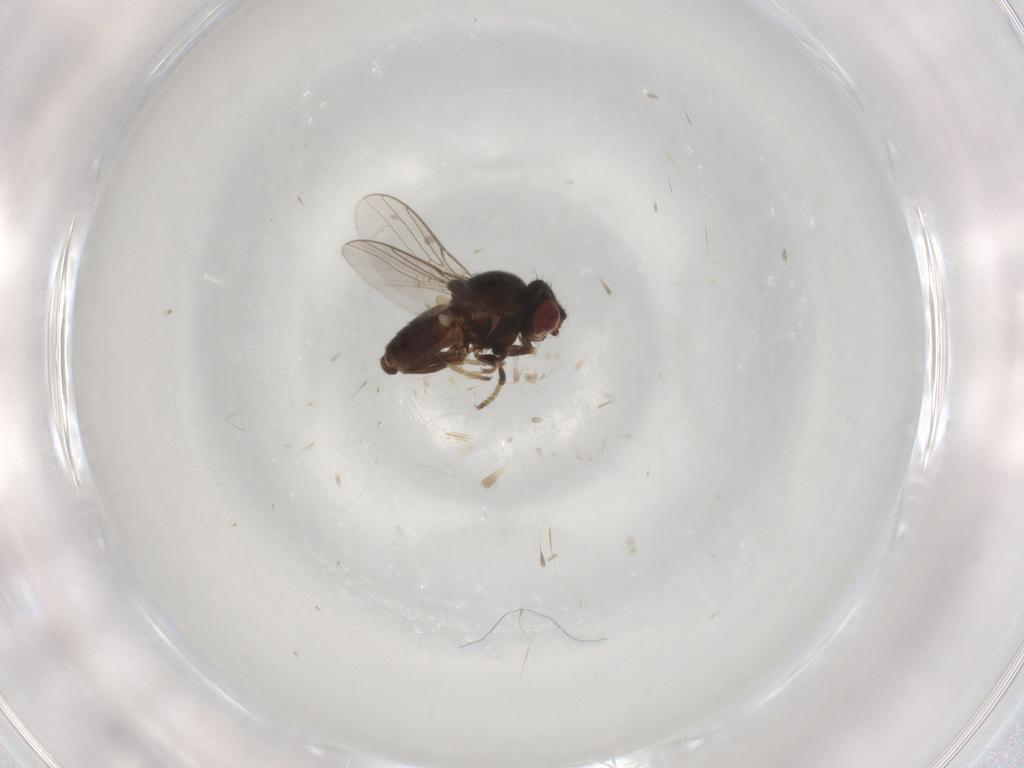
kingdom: Animalia
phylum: Arthropoda
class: Insecta
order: Diptera
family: Chloropidae
